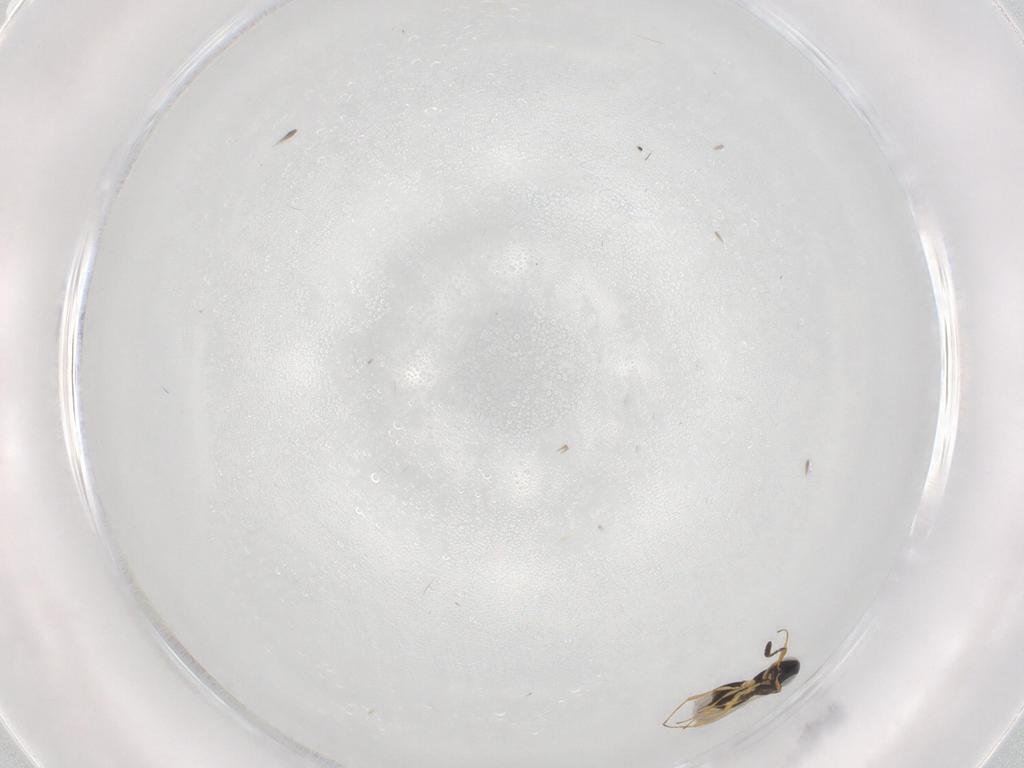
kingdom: Animalia
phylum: Arthropoda
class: Insecta
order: Hymenoptera
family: Scelionidae
